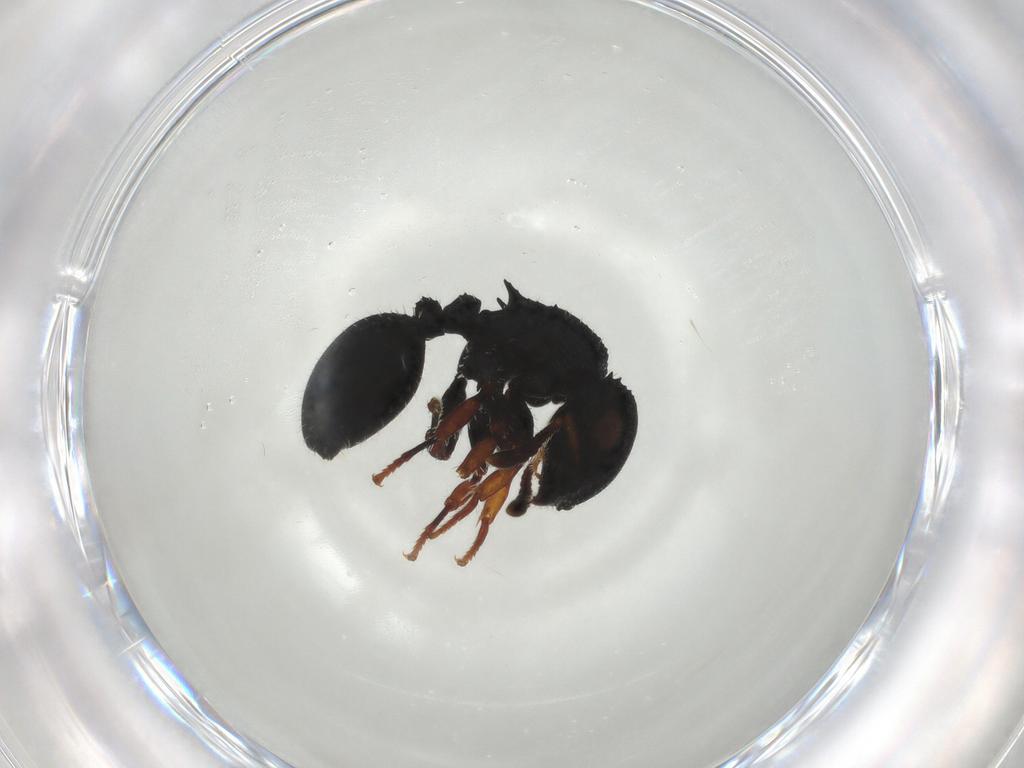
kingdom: Animalia
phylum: Arthropoda
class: Insecta
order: Hymenoptera
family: Formicidae
